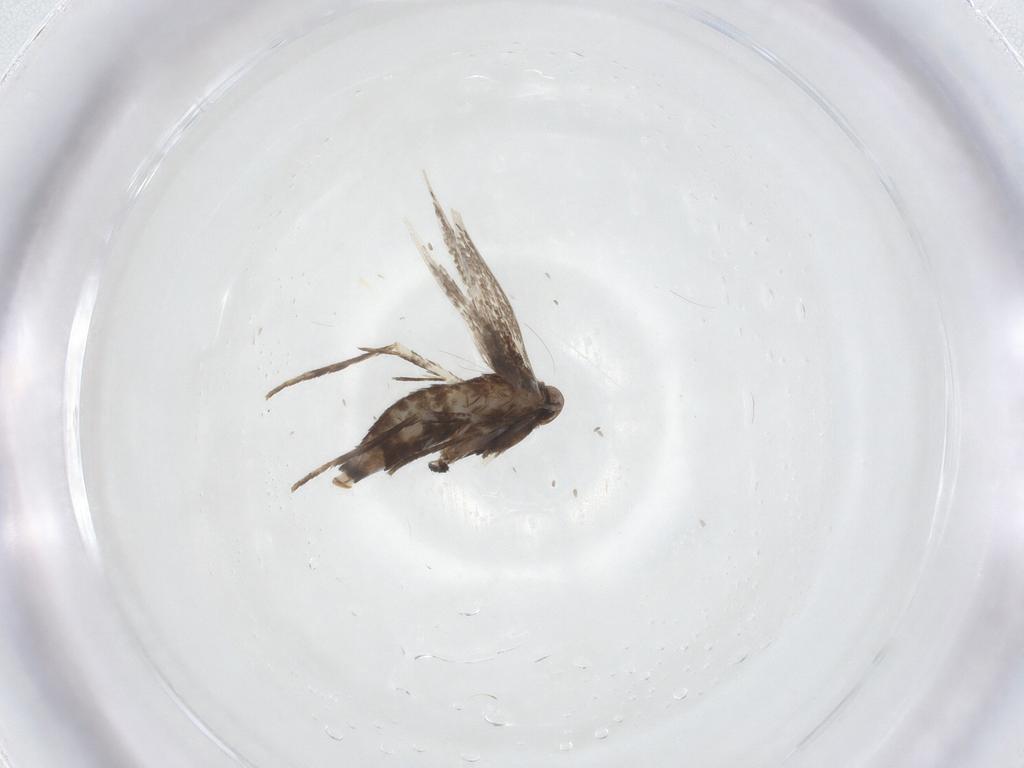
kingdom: Animalia
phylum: Arthropoda
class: Insecta
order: Lepidoptera
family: Gracillariidae
